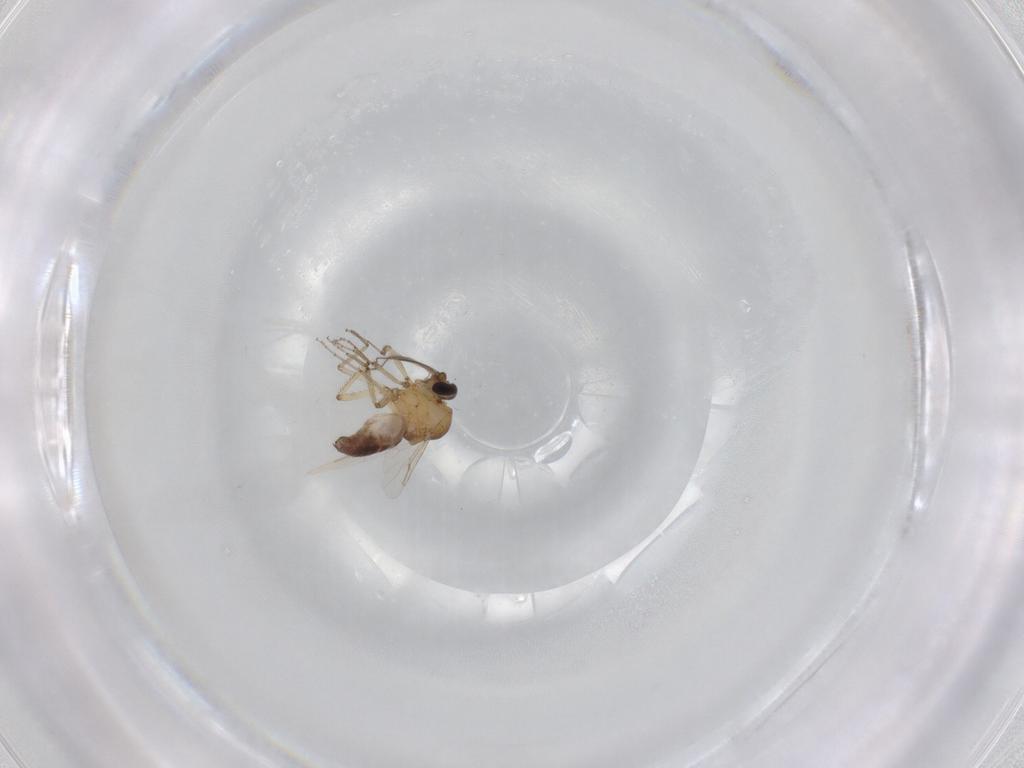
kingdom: Animalia
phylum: Arthropoda
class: Insecta
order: Diptera
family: Ceratopogonidae
